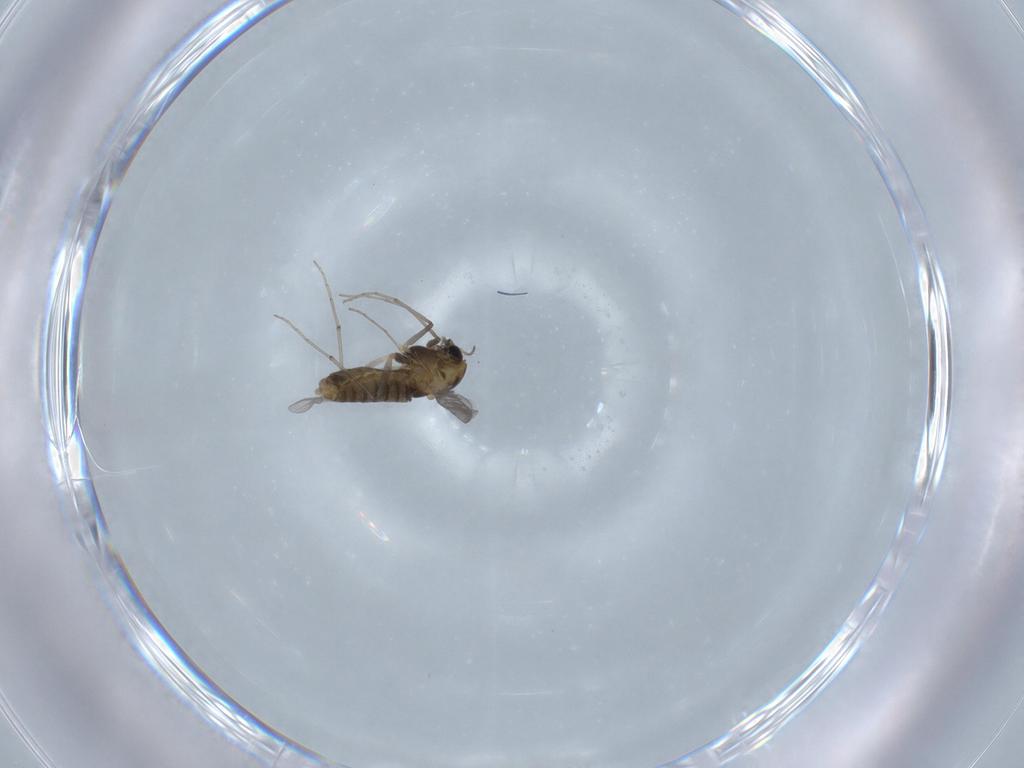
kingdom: Animalia
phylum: Arthropoda
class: Insecta
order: Diptera
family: Chironomidae
